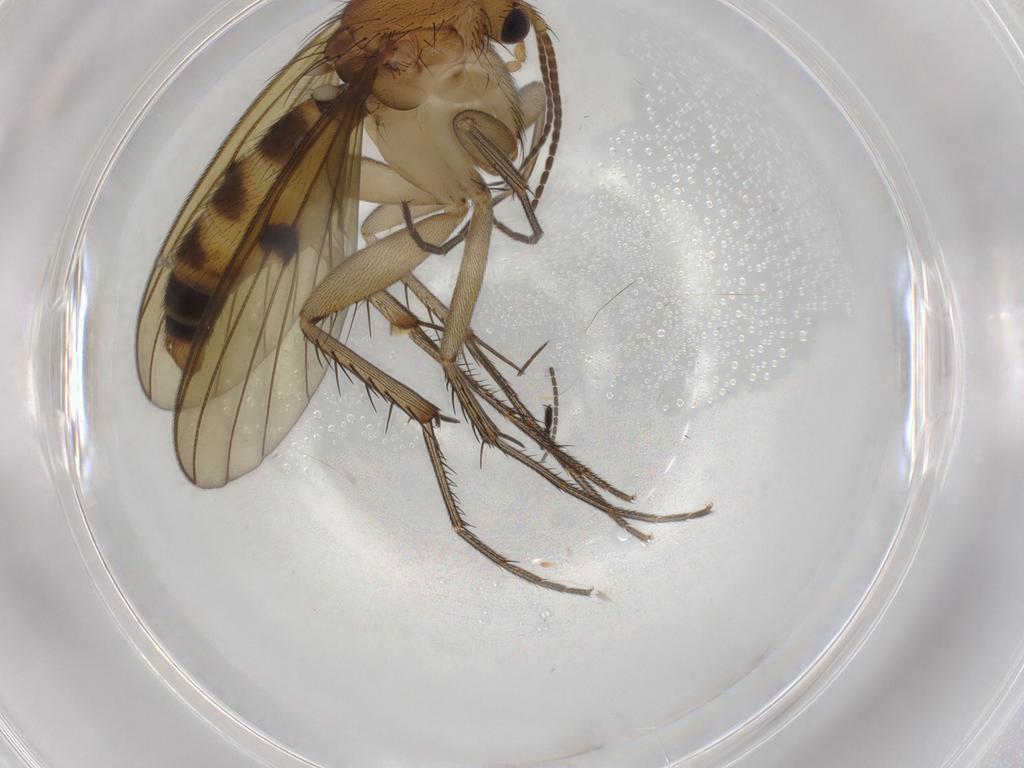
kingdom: Animalia
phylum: Arthropoda
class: Insecta
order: Diptera
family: Mycetophilidae
